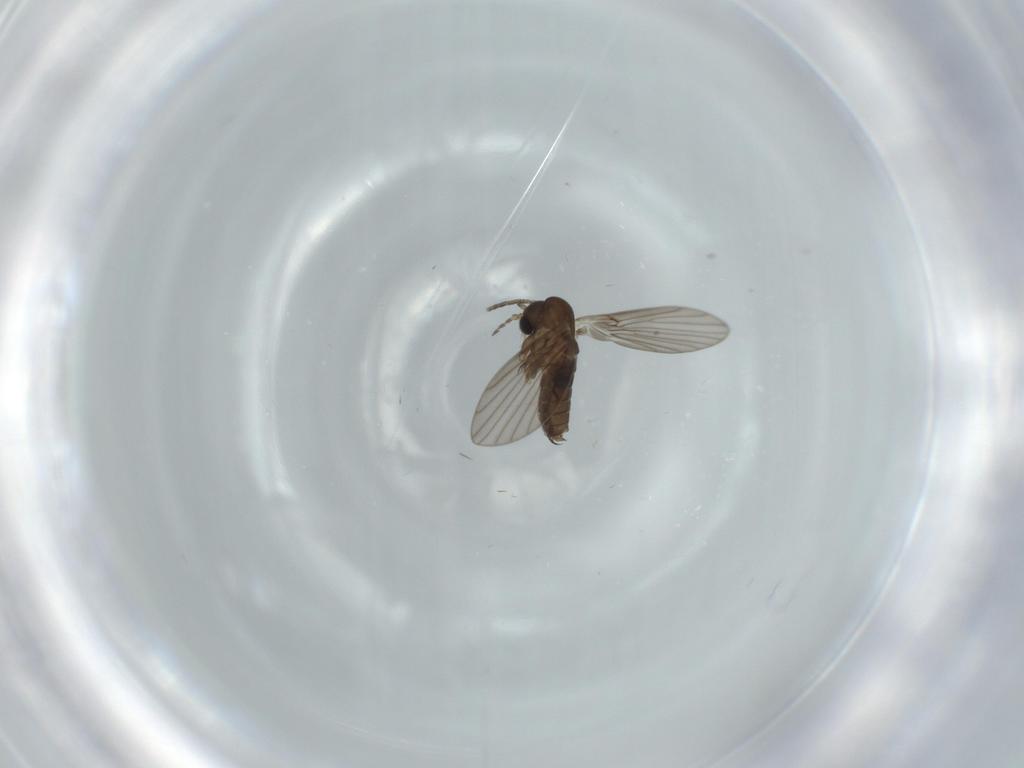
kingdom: Animalia
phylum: Arthropoda
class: Insecta
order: Diptera
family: Psychodidae
